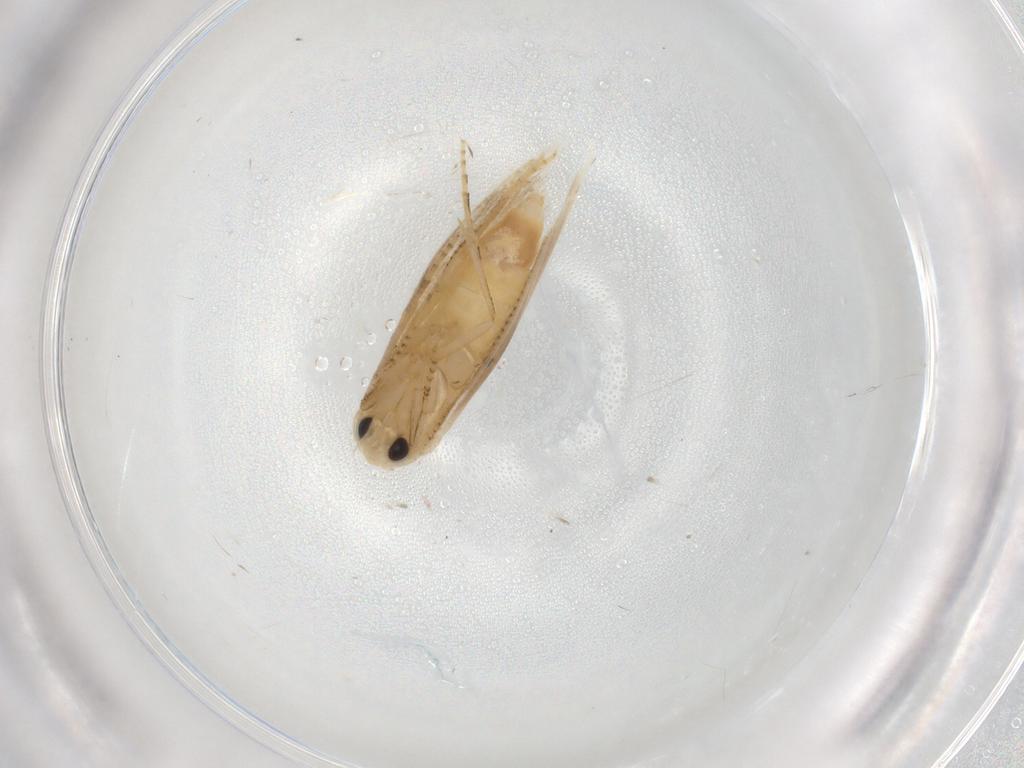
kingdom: Animalia
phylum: Arthropoda
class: Insecta
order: Lepidoptera
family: Bucculatricidae
